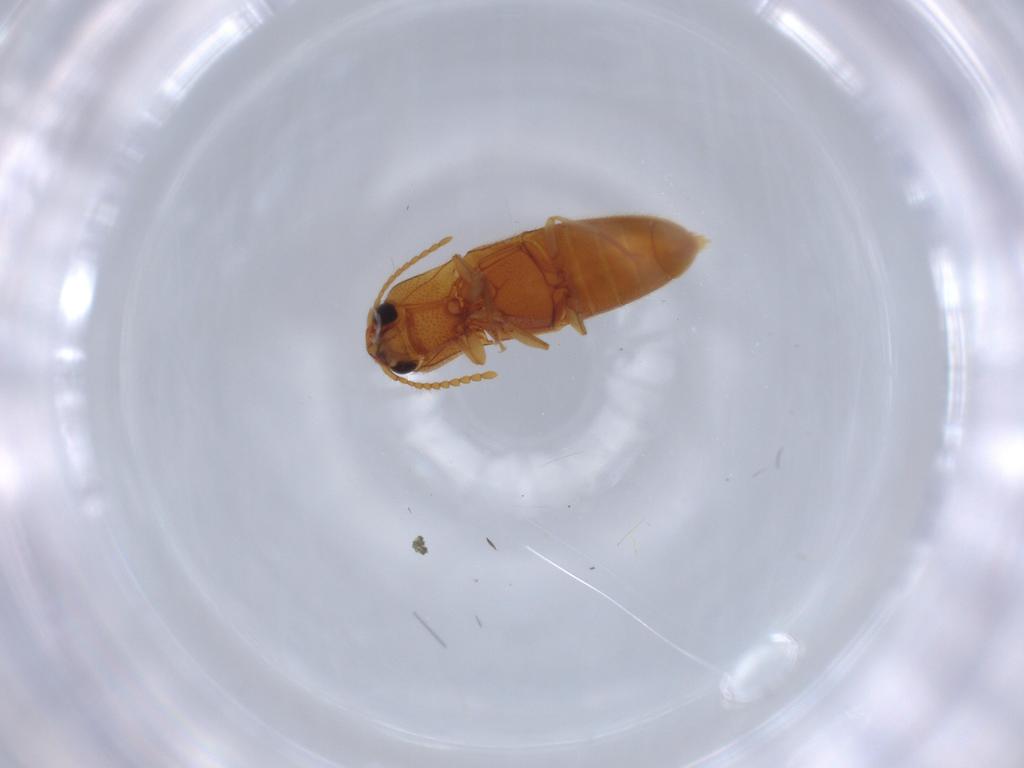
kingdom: Animalia
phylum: Arthropoda
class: Insecta
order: Coleoptera
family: Elateridae
